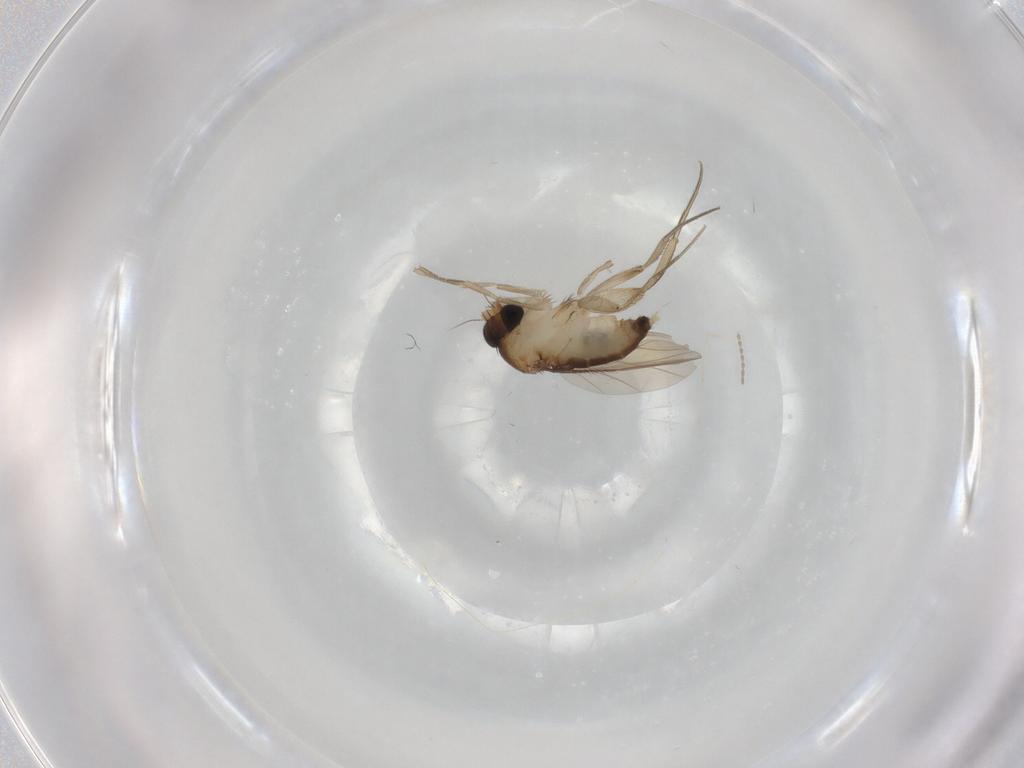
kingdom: Animalia
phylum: Arthropoda
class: Insecta
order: Diptera
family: Phoridae
